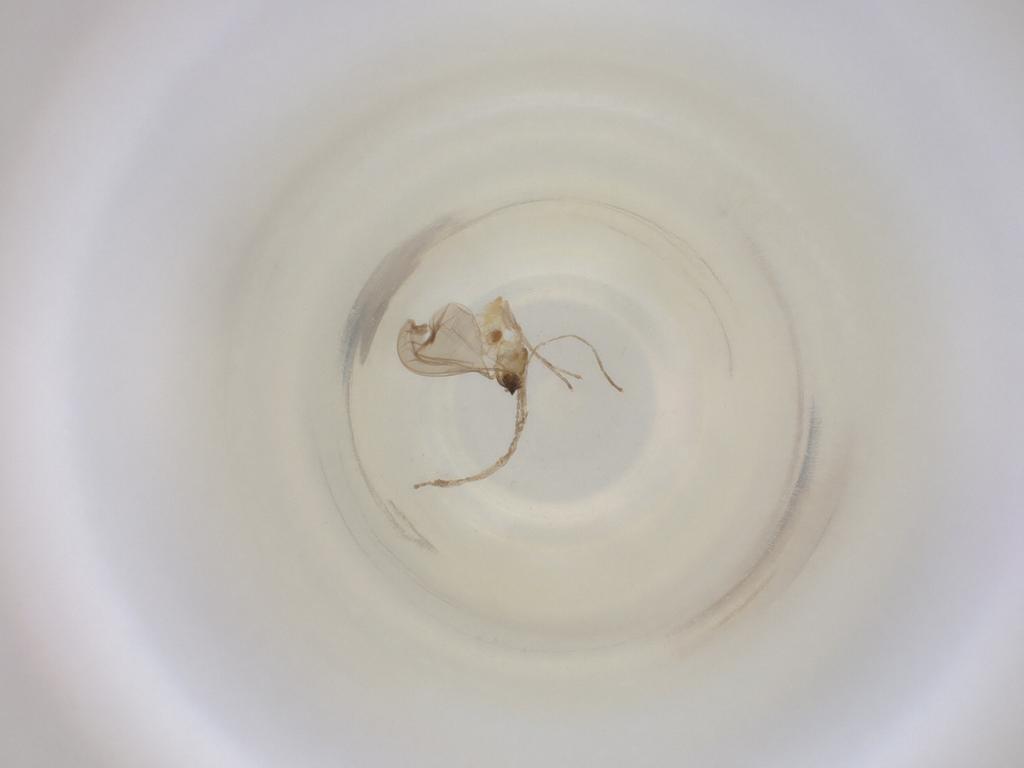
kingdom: Animalia
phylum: Arthropoda
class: Insecta
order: Diptera
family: Cecidomyiidae
